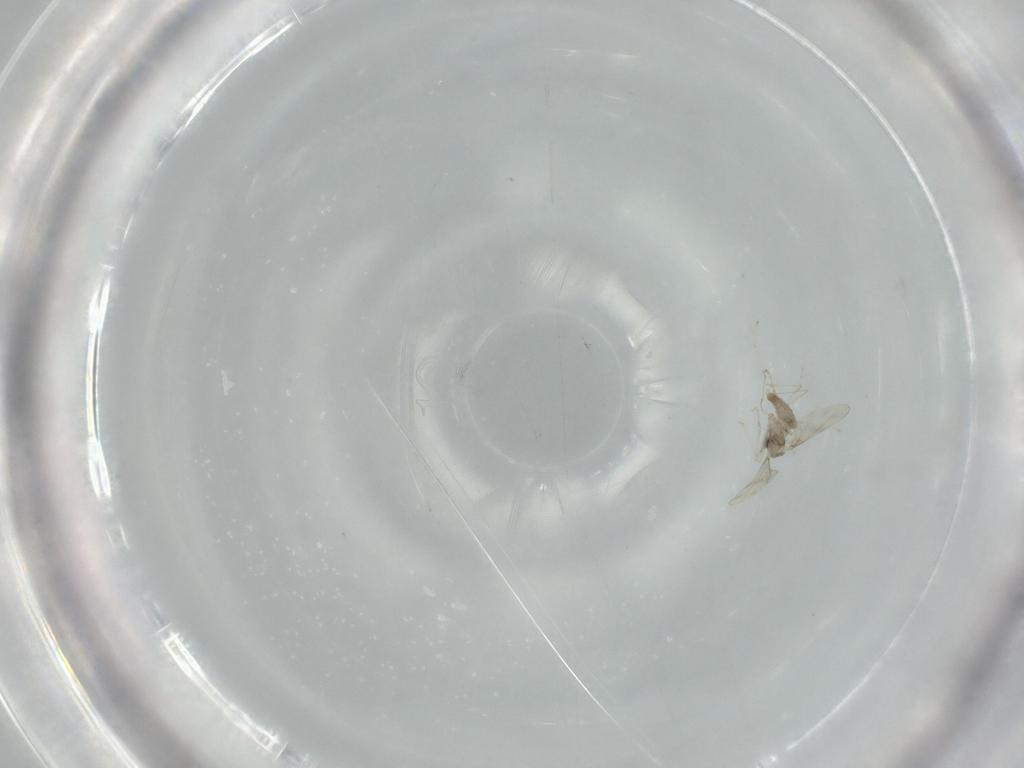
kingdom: Animalia
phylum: Arthropoda
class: Insecta
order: Diptera
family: Cecidomyiidae
